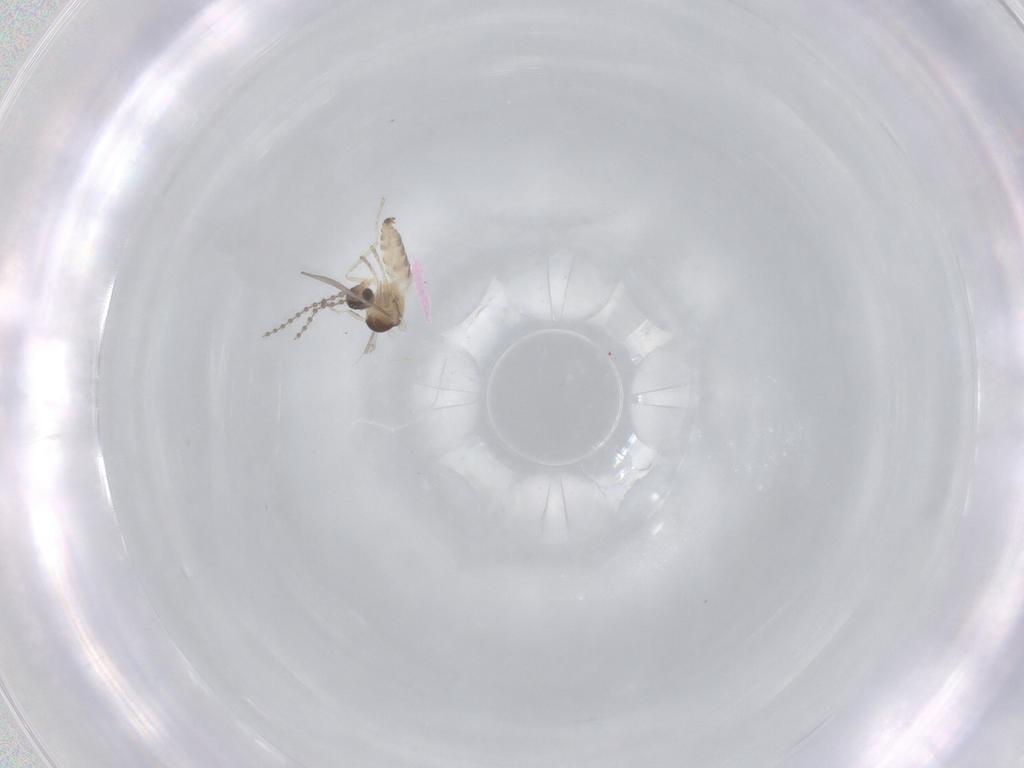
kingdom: Animalia
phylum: Arthropoda
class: Insecta
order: Diptera
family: Cecidomyiidae
